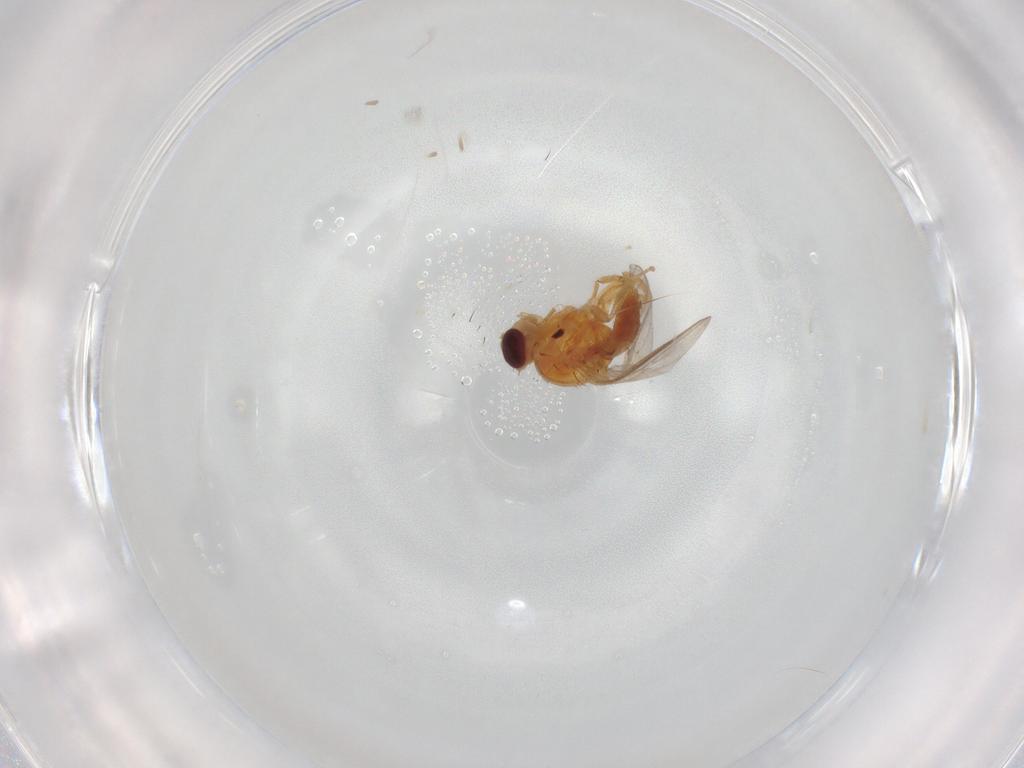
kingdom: Animalia
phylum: Arthropoda
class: Insecta
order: Diptera
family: Chloropidae
